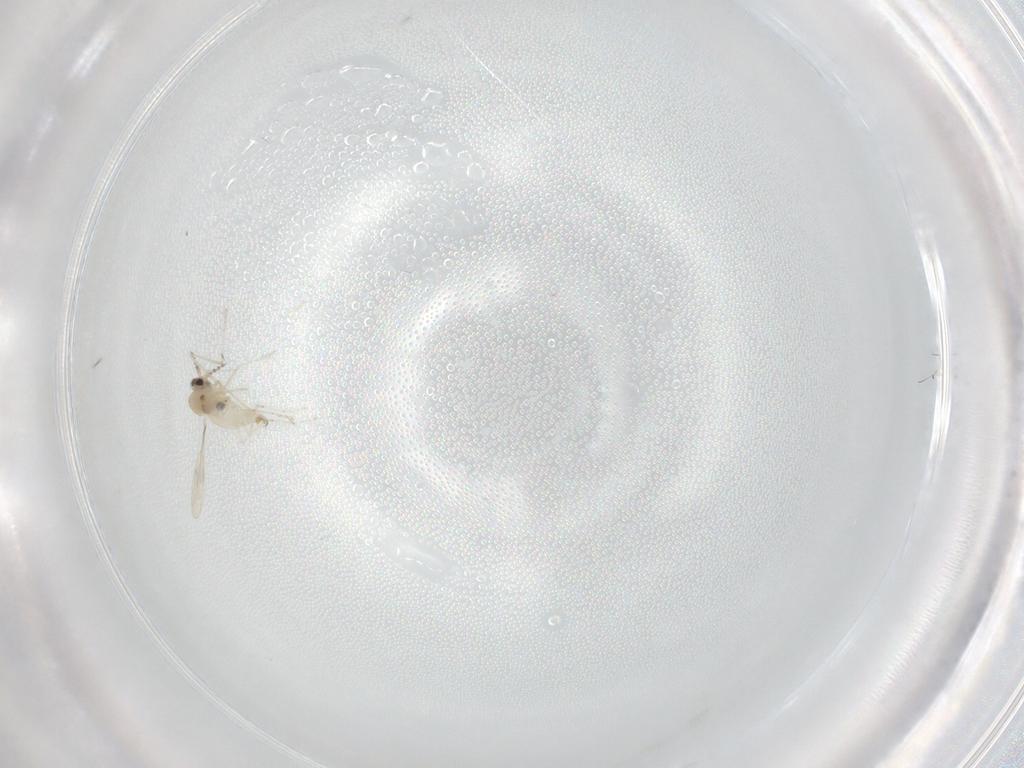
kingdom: Animalia
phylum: Arthropoda
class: Insecta
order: Diptera
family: Cecidomyiidae
